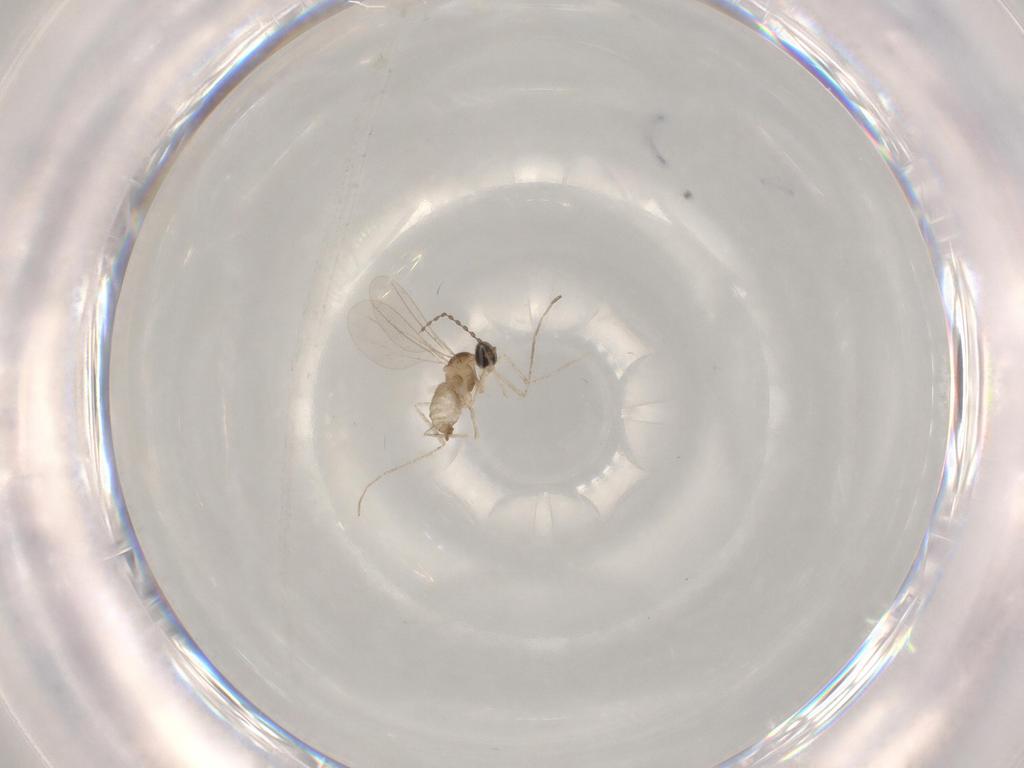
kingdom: Animalia
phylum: Arthropoda
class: Insecta
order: Diptera
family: Chironomidae
